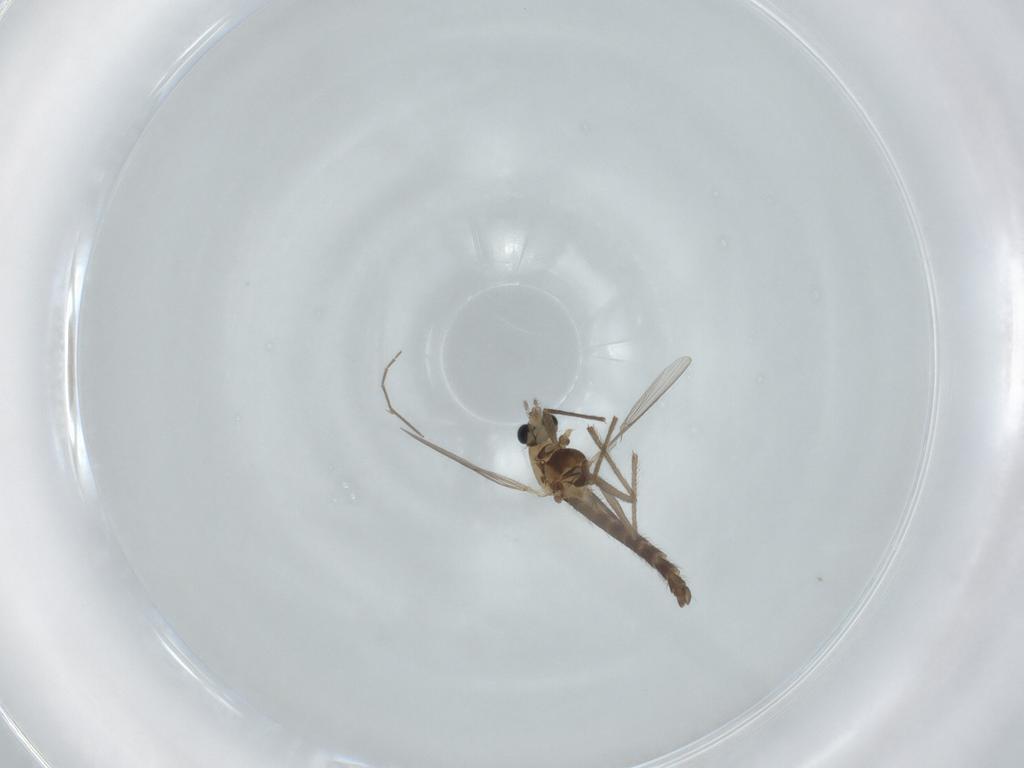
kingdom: Animalia
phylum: Arthropoda
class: Insecta
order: Diptera
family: Chironomidae
